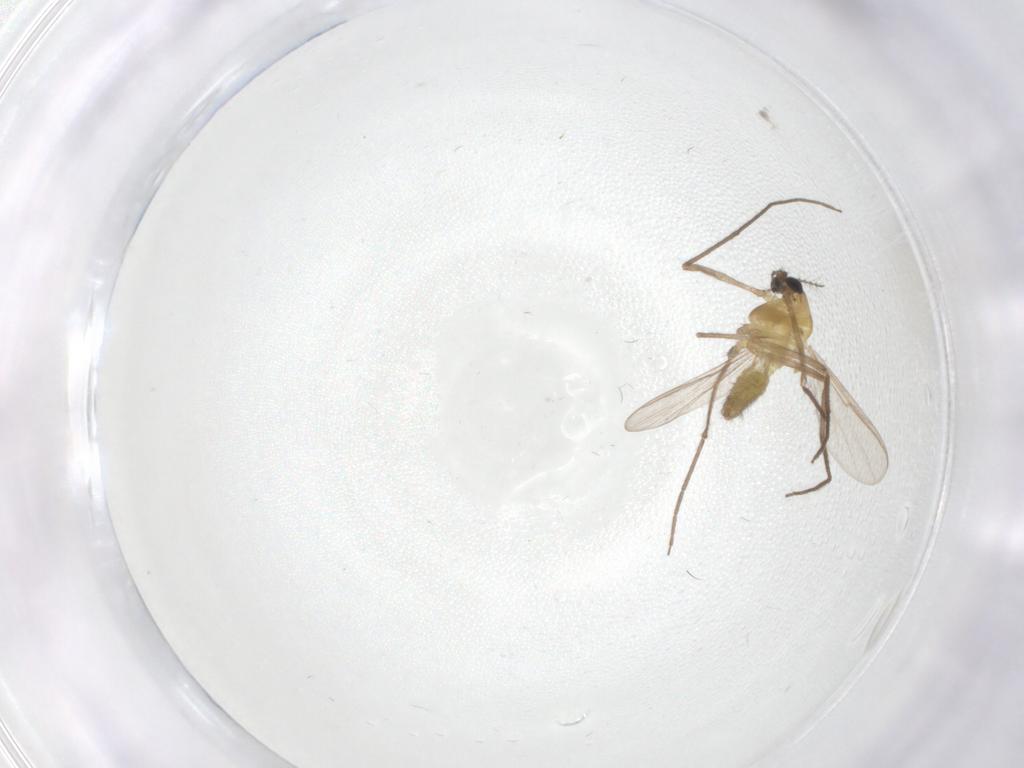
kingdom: Animalia
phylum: Arthropoda
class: Insecta
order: Diptera
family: Chironomidae
